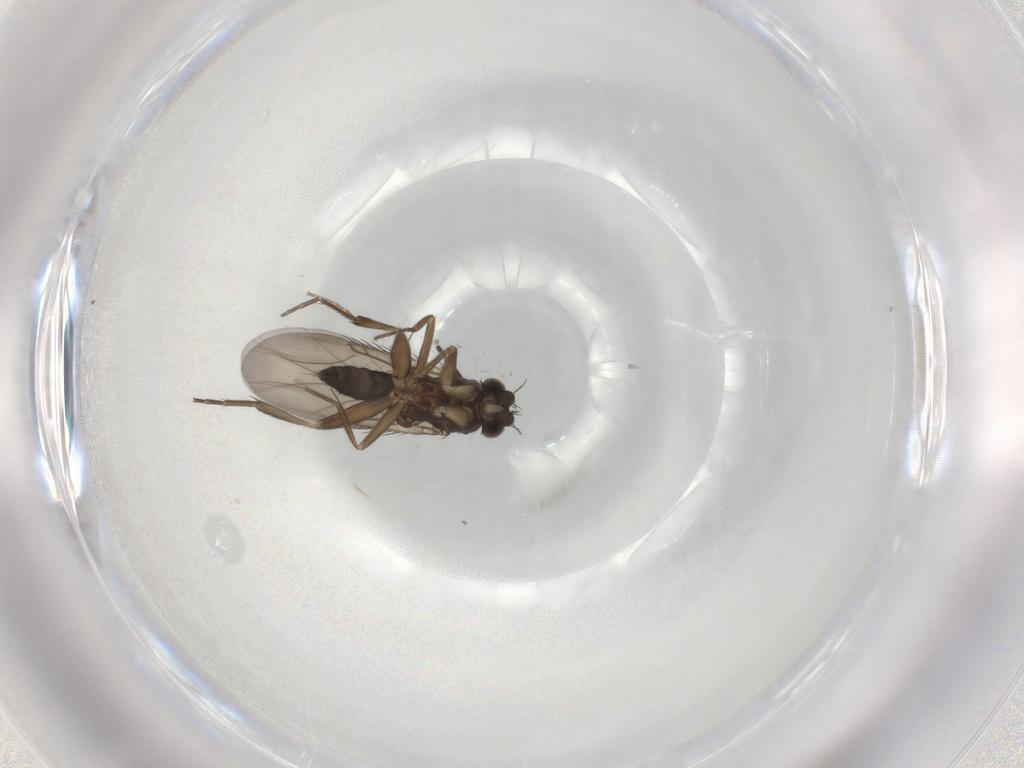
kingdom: Animalia
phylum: Arthropoda
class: Insecta
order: Diptera
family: Phoridae
